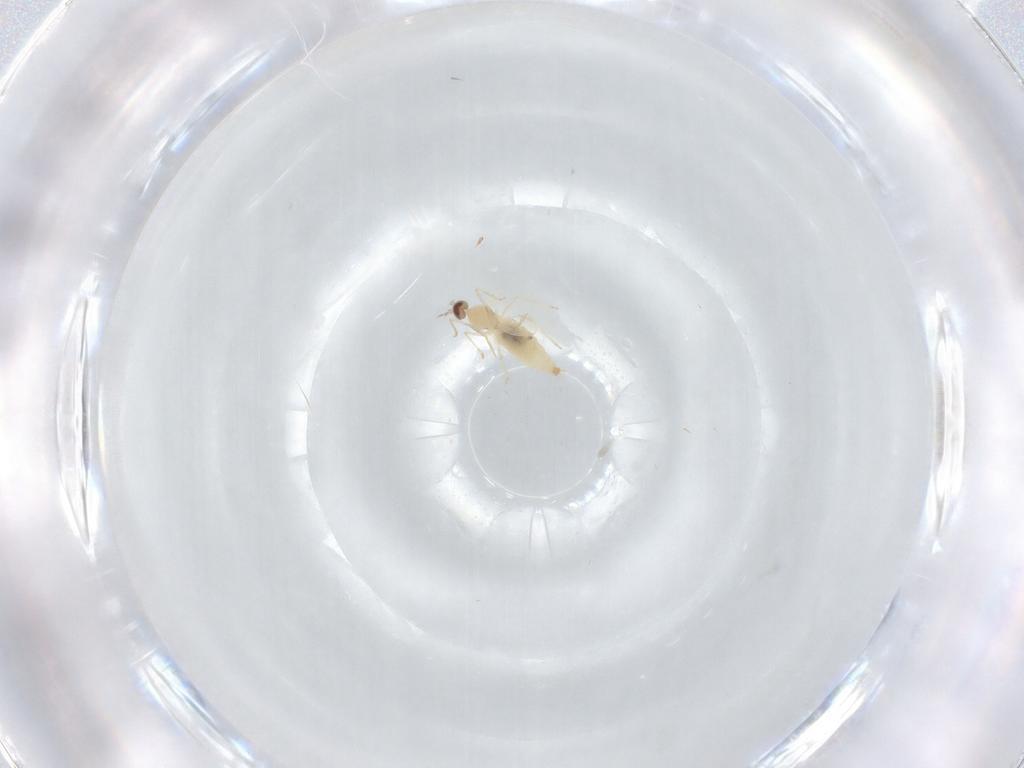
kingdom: Animalia
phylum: Arthropoda
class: Insecta
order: Diptera
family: Cecidomyiidae
